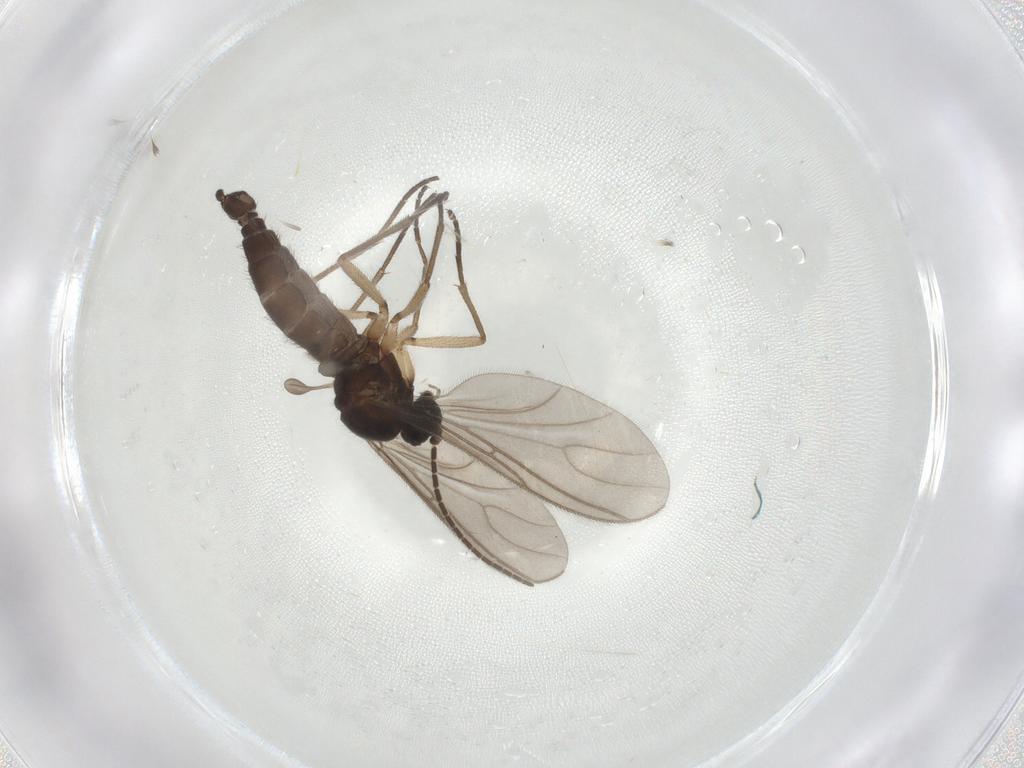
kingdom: Animalia
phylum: Arthropoda
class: Insecta
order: Diptera
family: Sciaridae
